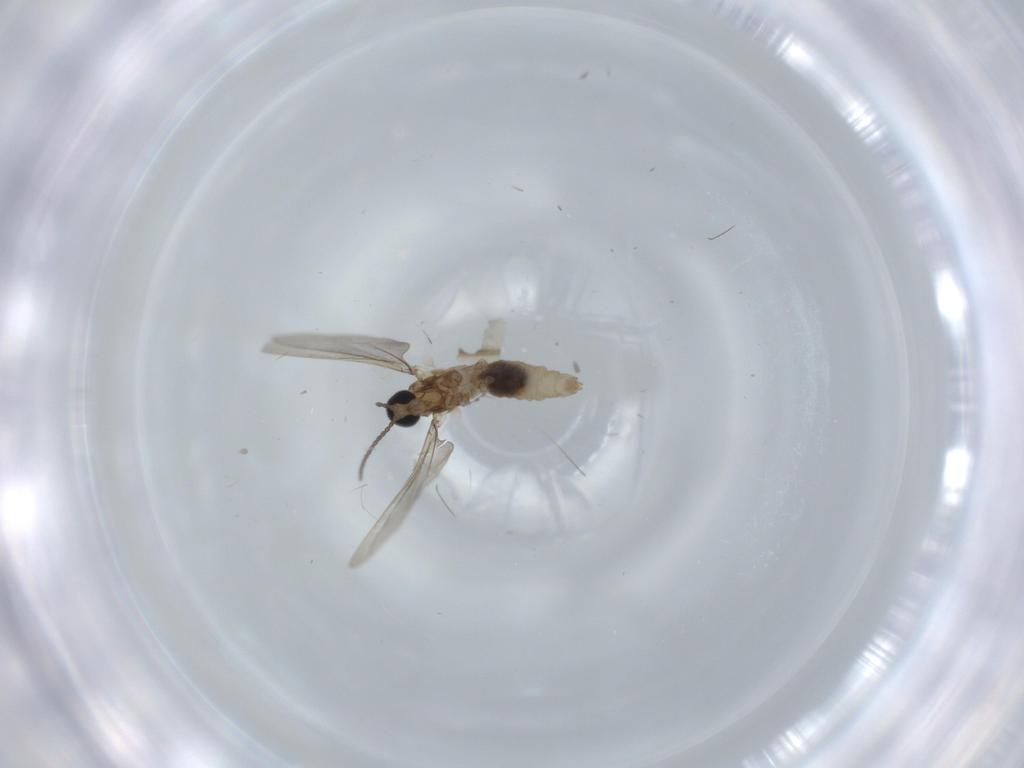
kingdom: Animalia
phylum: Arthropoda
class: Insecta
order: Diptera
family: Cecidomyiidae
